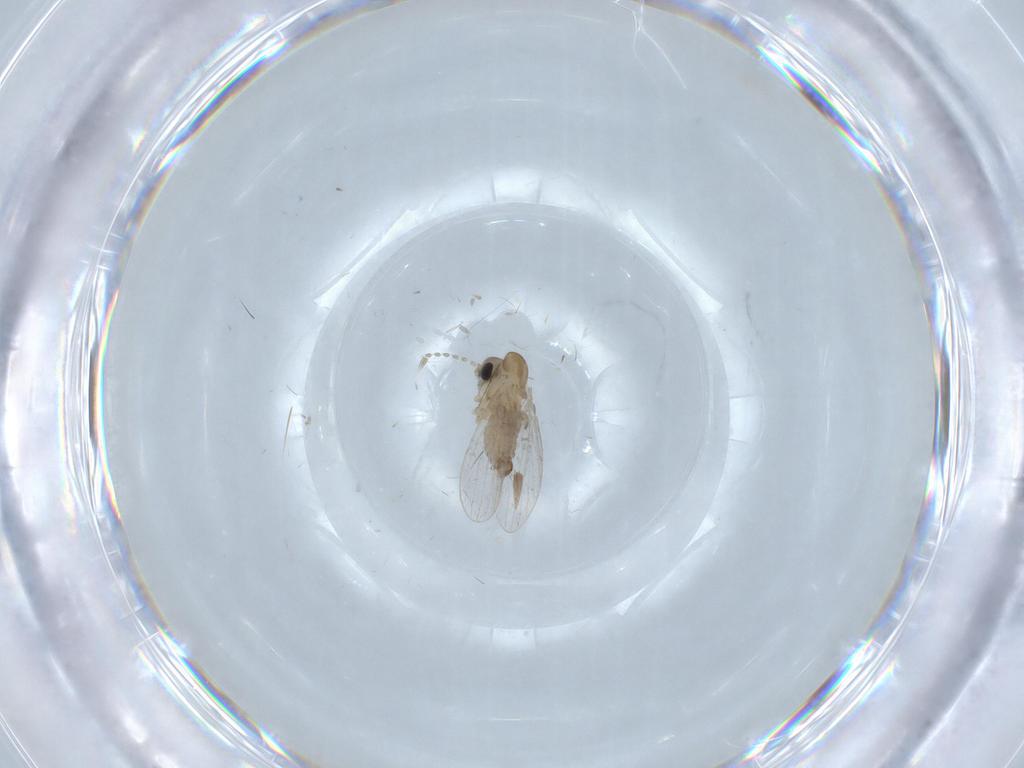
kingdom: Animalia
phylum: Arthropoda
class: Insecta
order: Diptera
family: Psychodidae
